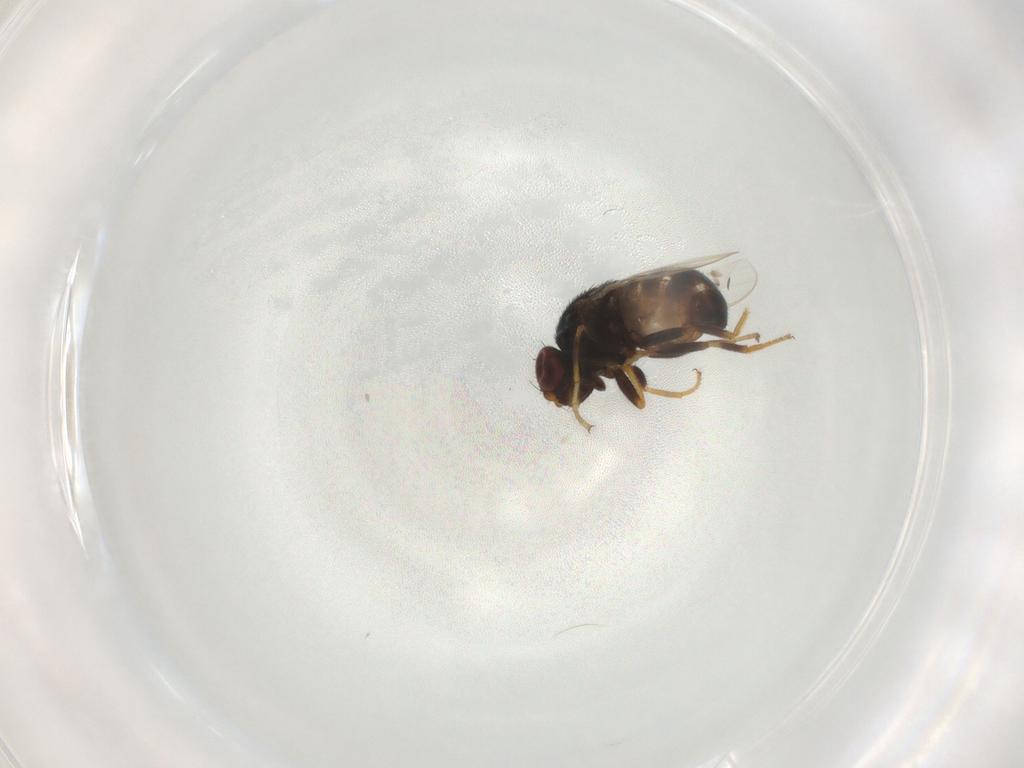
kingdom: Animalia
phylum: Arthropoda
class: Insecta
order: Diptera
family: Chloropidae
